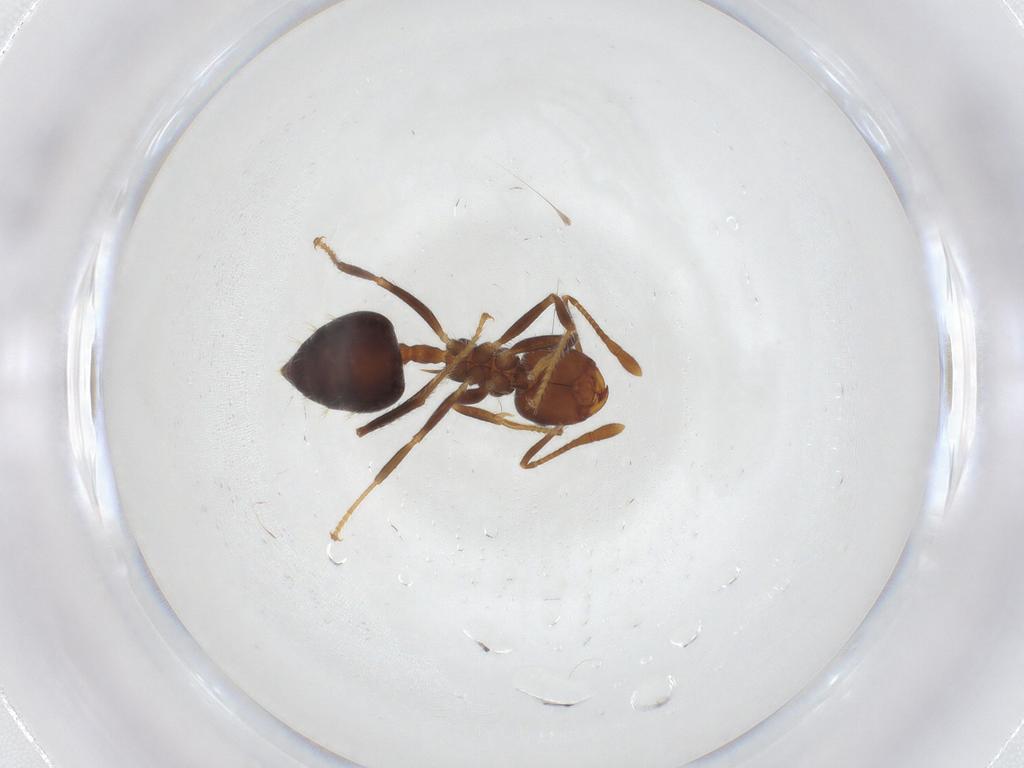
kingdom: Animalia
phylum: Arthropoda
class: Insecta
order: Hymenoptera
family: Formicidae
